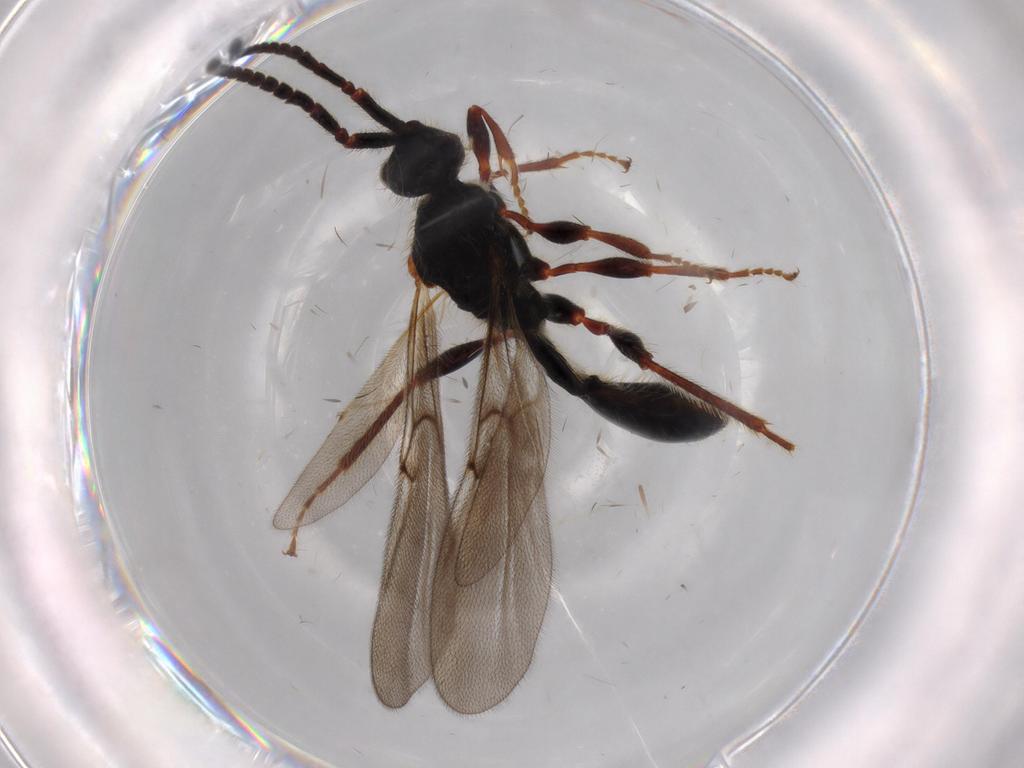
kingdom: Animalia
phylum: Arthropoda
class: Insecta
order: Hymenoptera
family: Diapriidae
